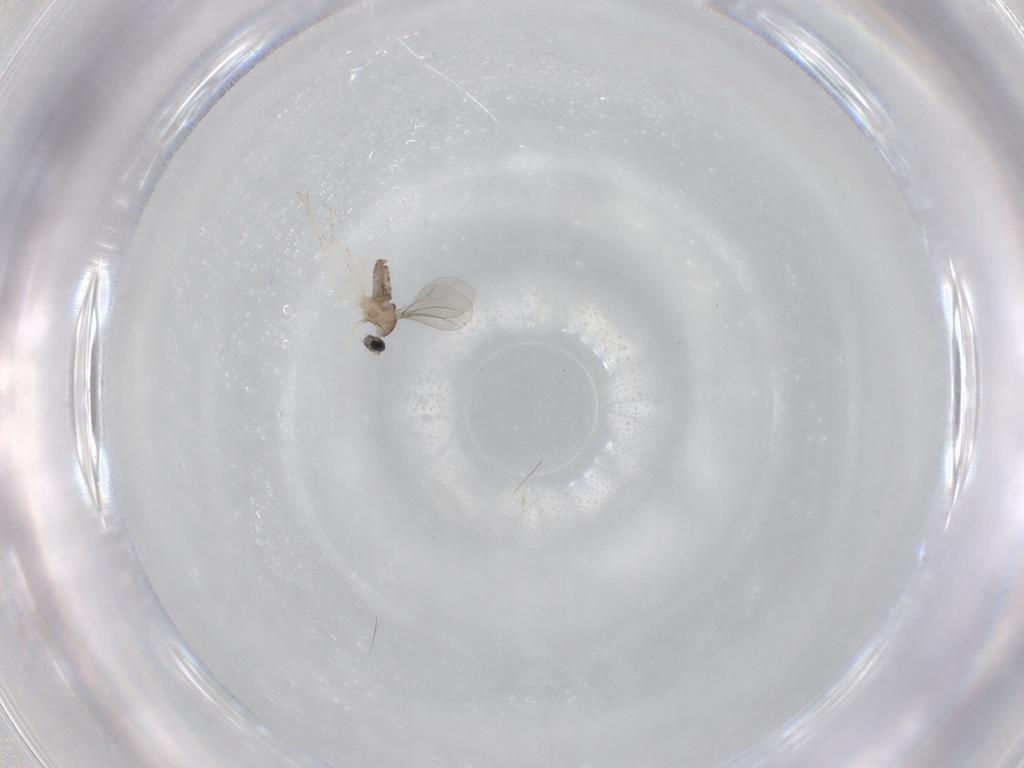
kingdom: Animalia
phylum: Arthropoda
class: Insecta
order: Diptera
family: Cecidomyiidae
